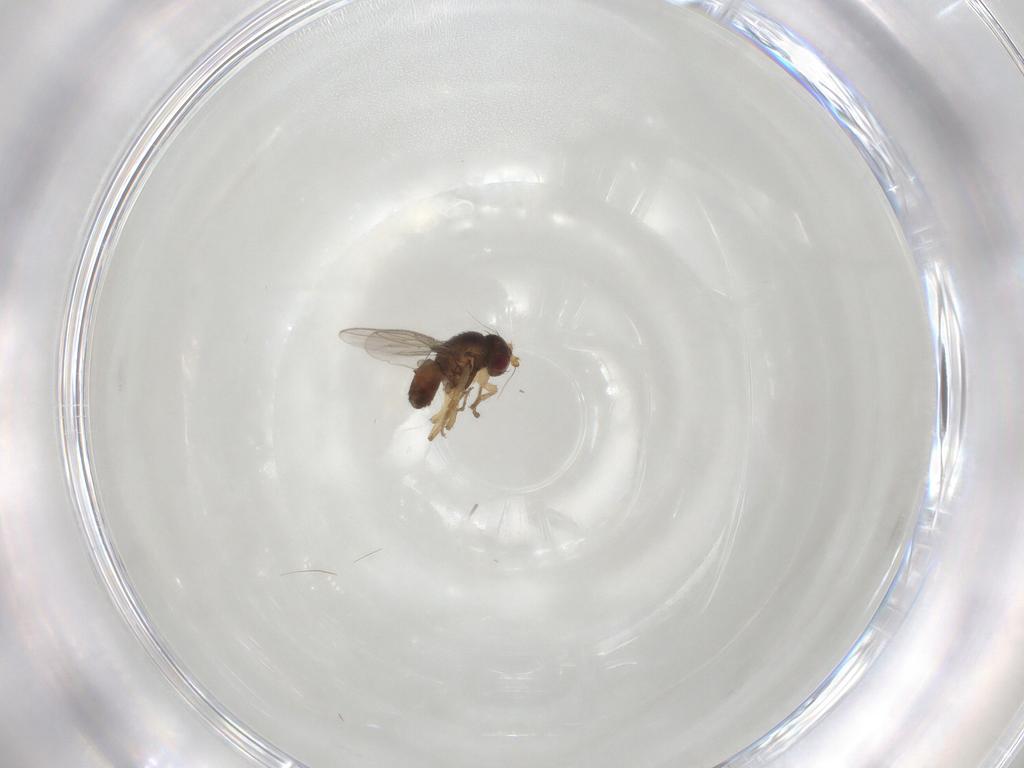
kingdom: Animalia
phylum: Arthropoda
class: Insecta
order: Diptera
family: Sphaeroceridae
